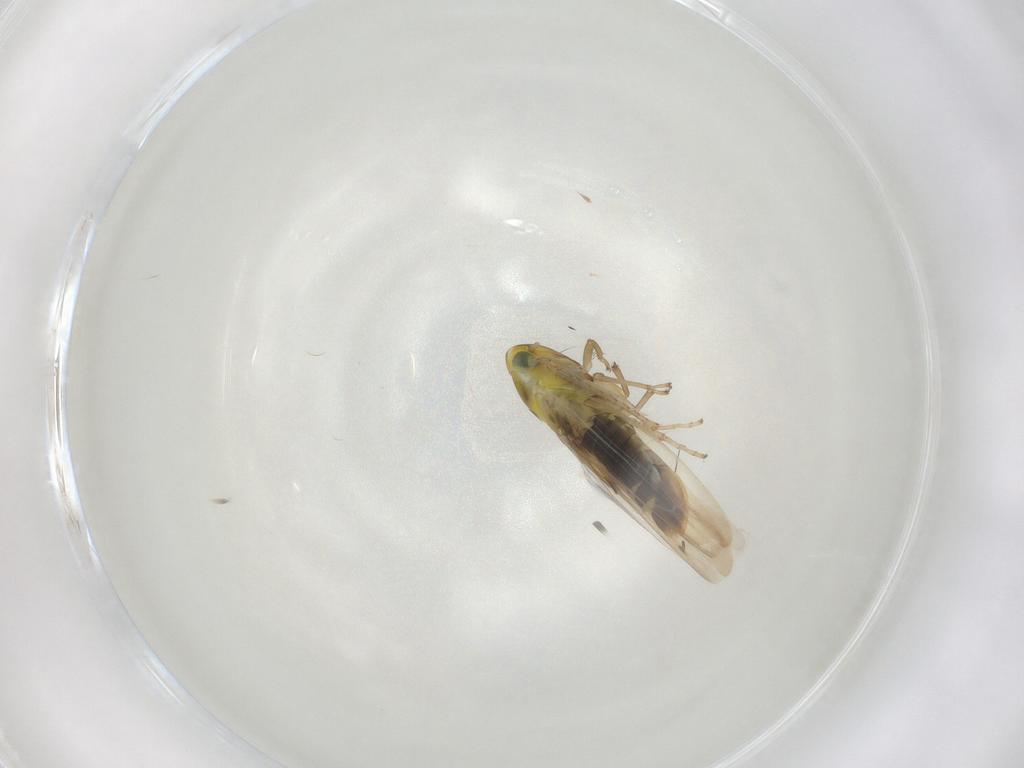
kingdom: Animalia
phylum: Arthropoda
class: Insecta
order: Hemiptera
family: Cicadellidae
